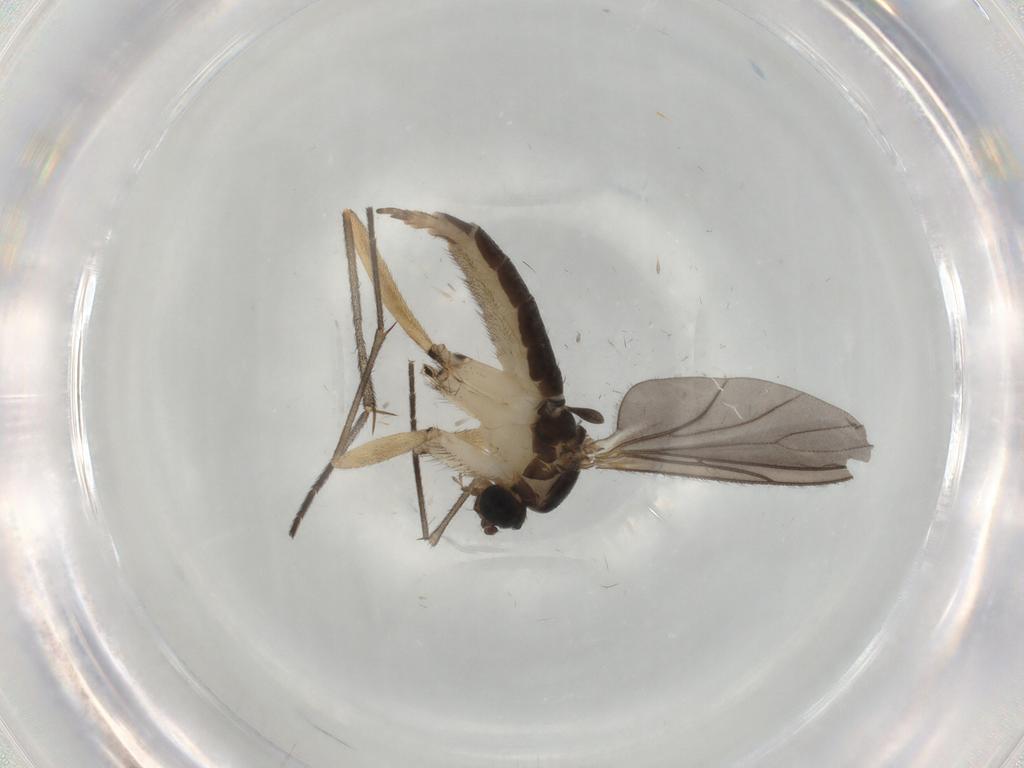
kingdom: Animalia
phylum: Arthropoda
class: Insecta
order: Diptera
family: Sciaridae
